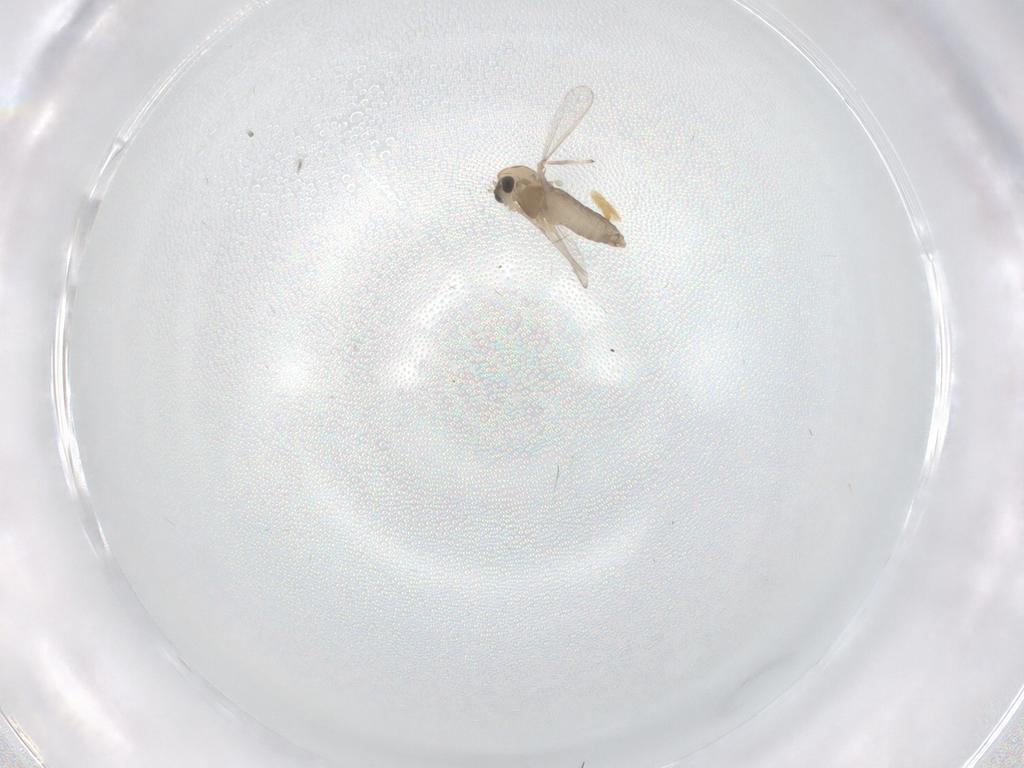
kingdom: Animalia
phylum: Arthropoda
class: Insecta
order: Diptera
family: Chironomidae
